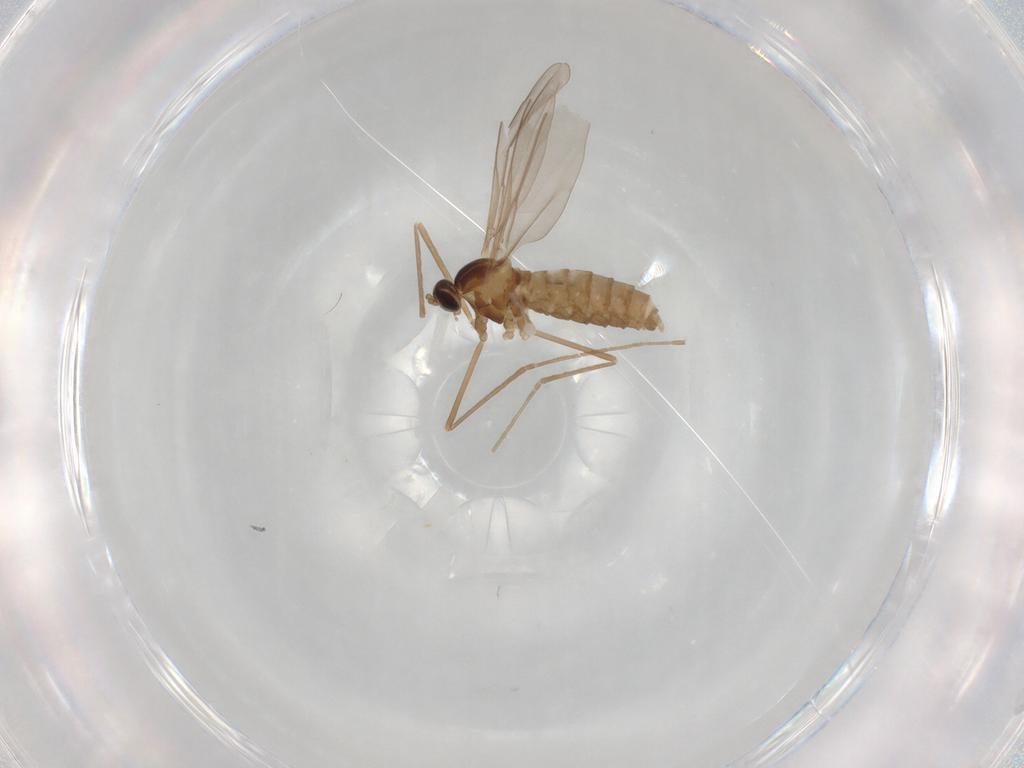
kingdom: Animalia
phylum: Arthropoda
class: Insecta
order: Diptera
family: Cecidomyiidae
